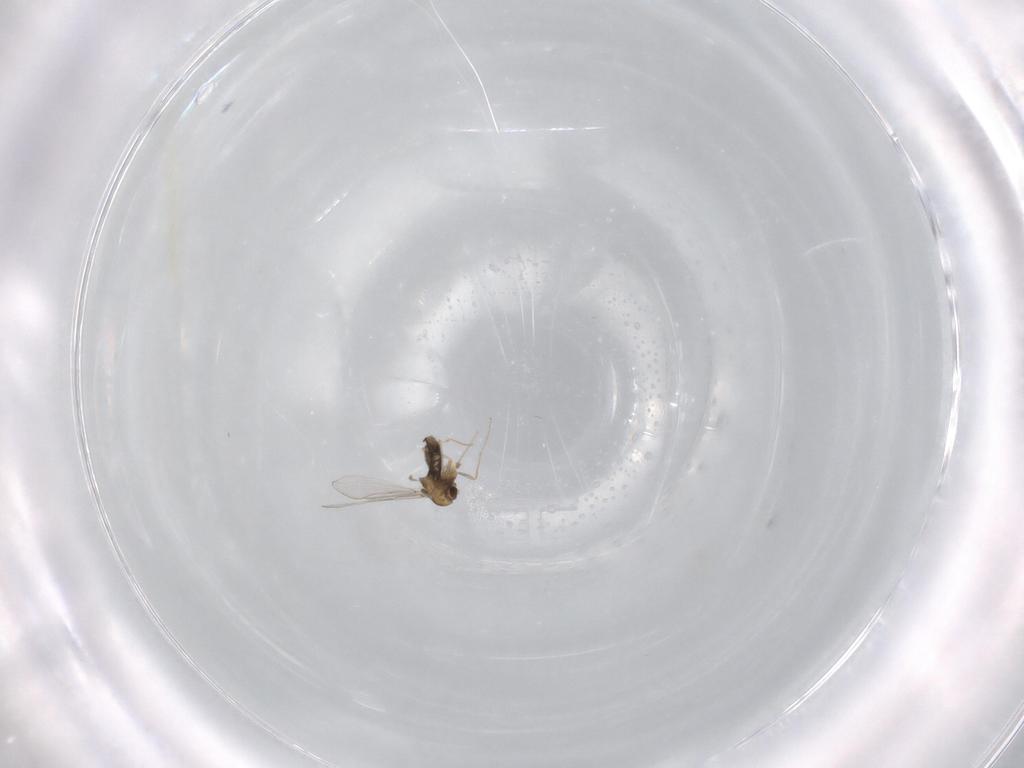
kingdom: Animalia
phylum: Arthropoda
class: Insecta
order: Diptera
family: Chironomidae
